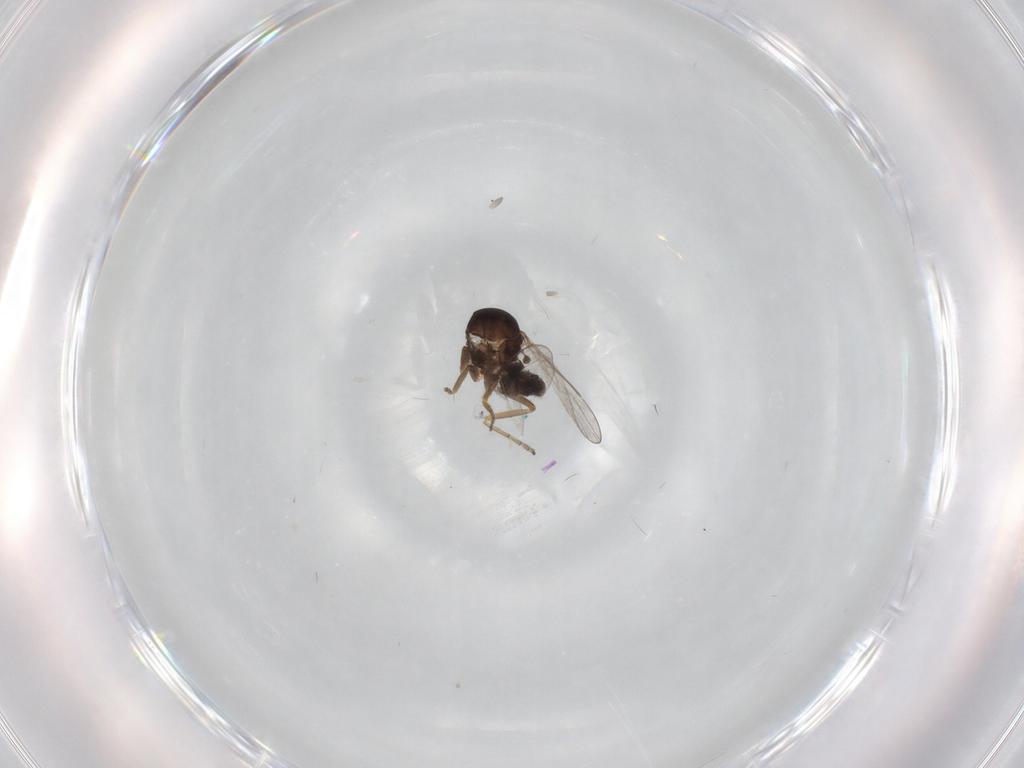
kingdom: Animalia
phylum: Arthropoda
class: Insecta
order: Diptera
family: Ceratopogonidae
